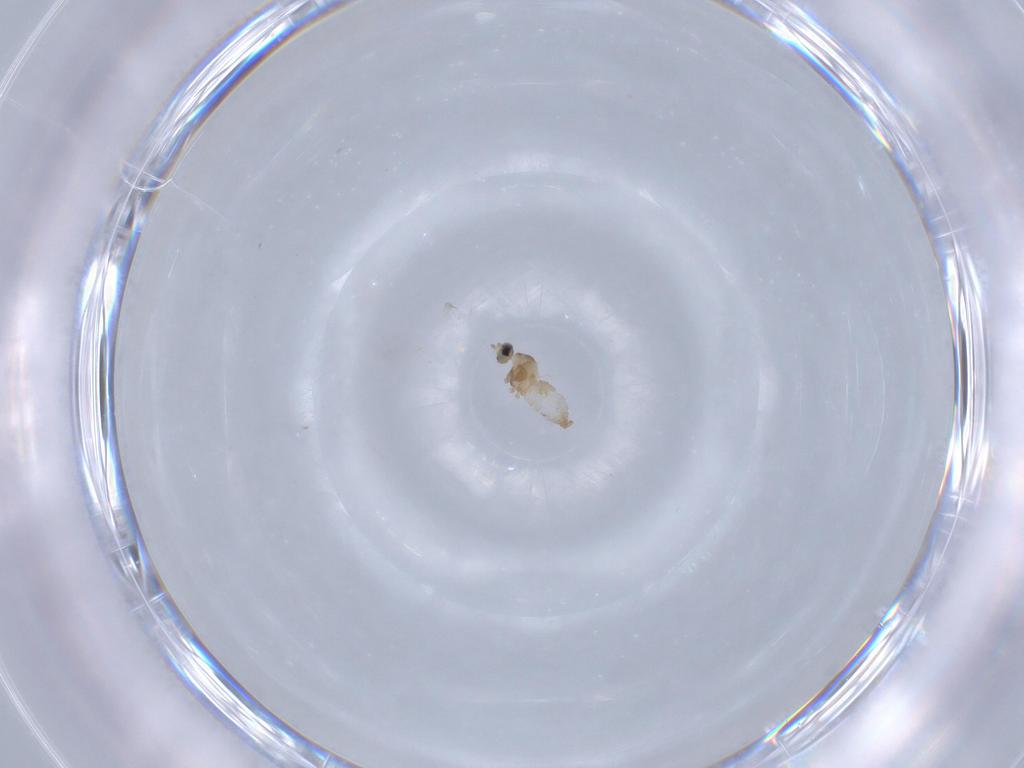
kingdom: Animalia
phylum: Arthropoda
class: Insecta
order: Diptera
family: Cecidomyiidae
